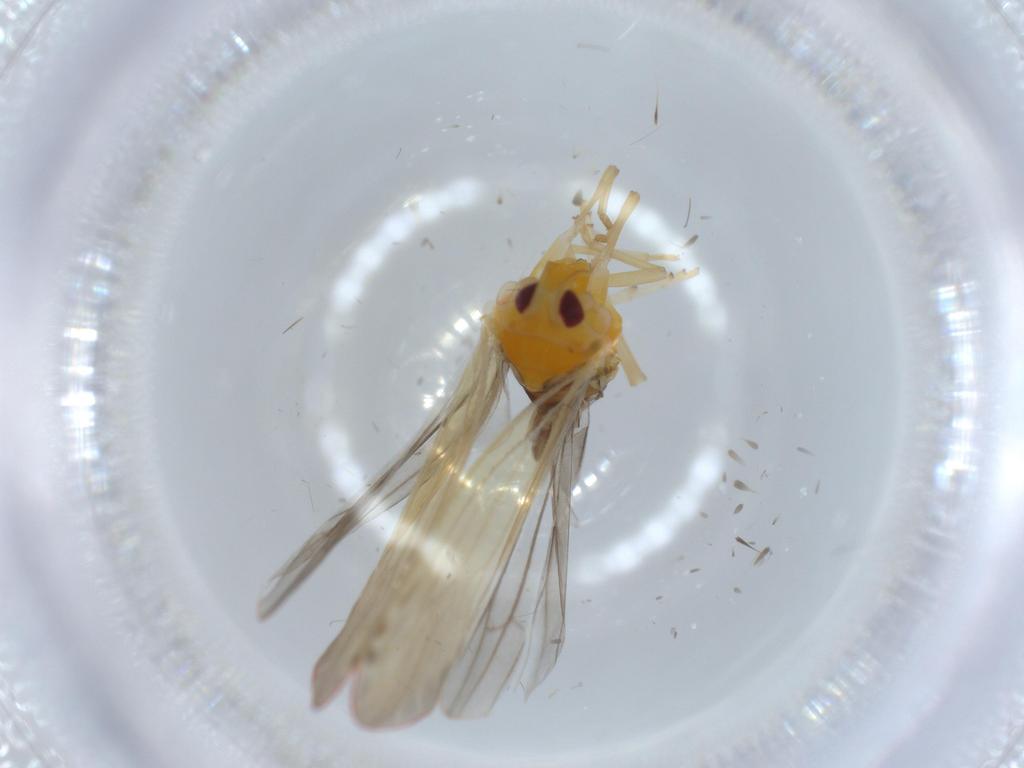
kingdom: Animalia
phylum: Arthropoda
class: Insecta
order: Hemiptera
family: Derbidae
